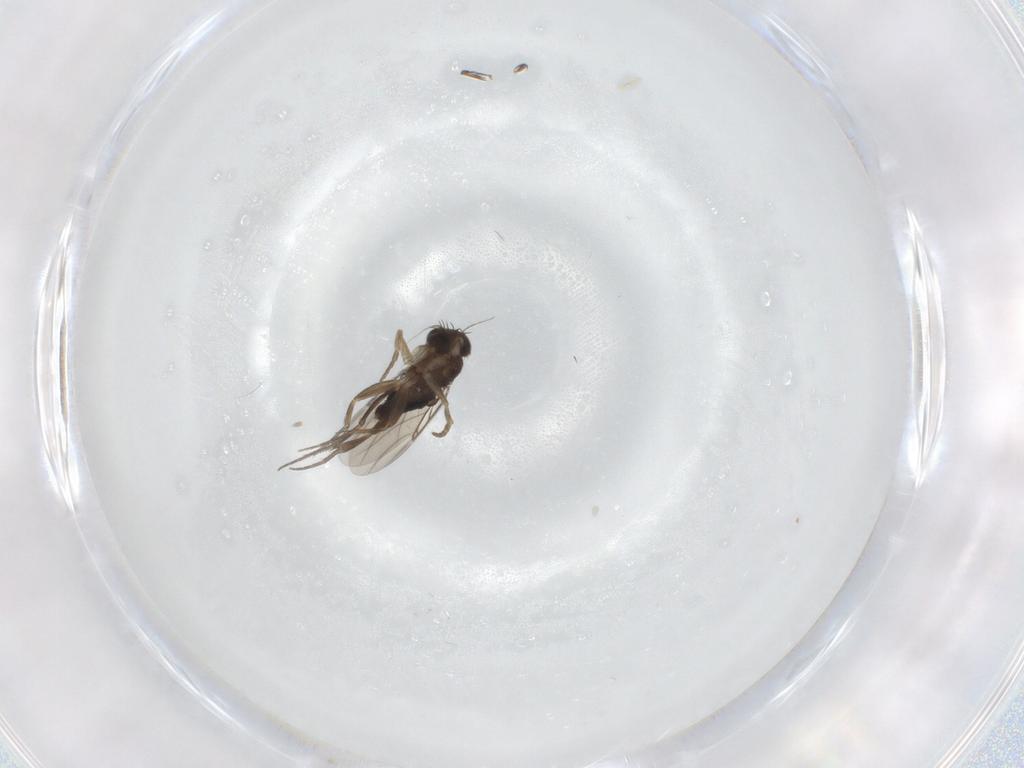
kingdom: Animalia
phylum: Arthropoda
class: Insecta
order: Diptera
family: Phoridae
